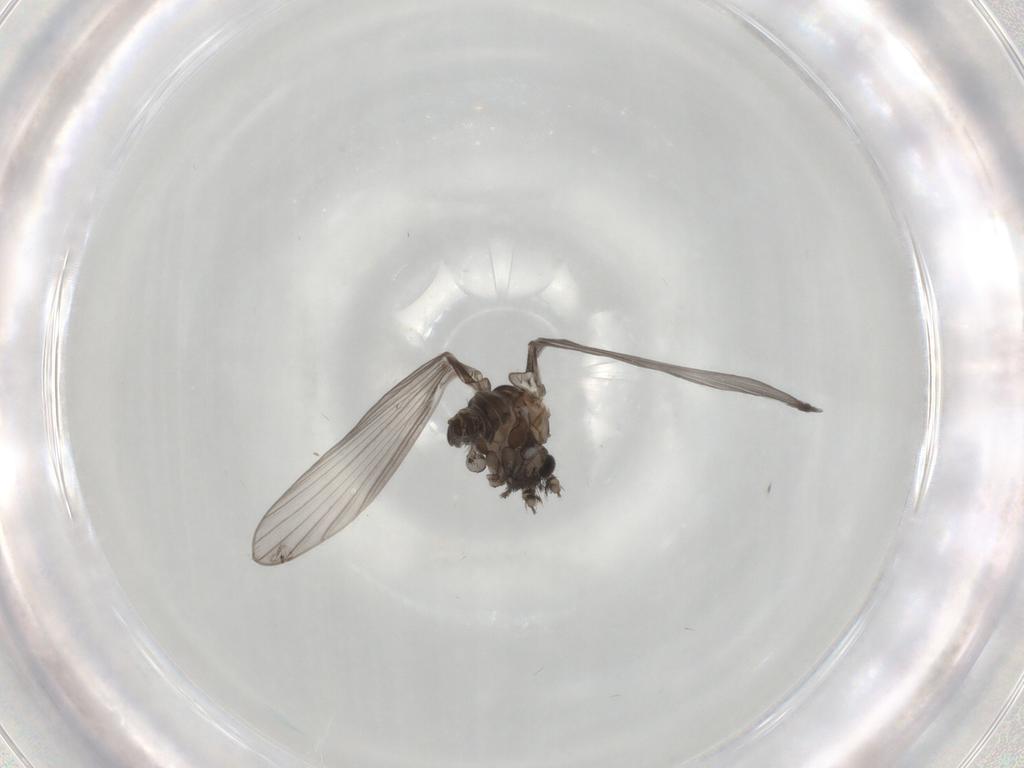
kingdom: Animalia
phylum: Arthropoda
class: Insecta
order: Diptera
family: Psychodidae
